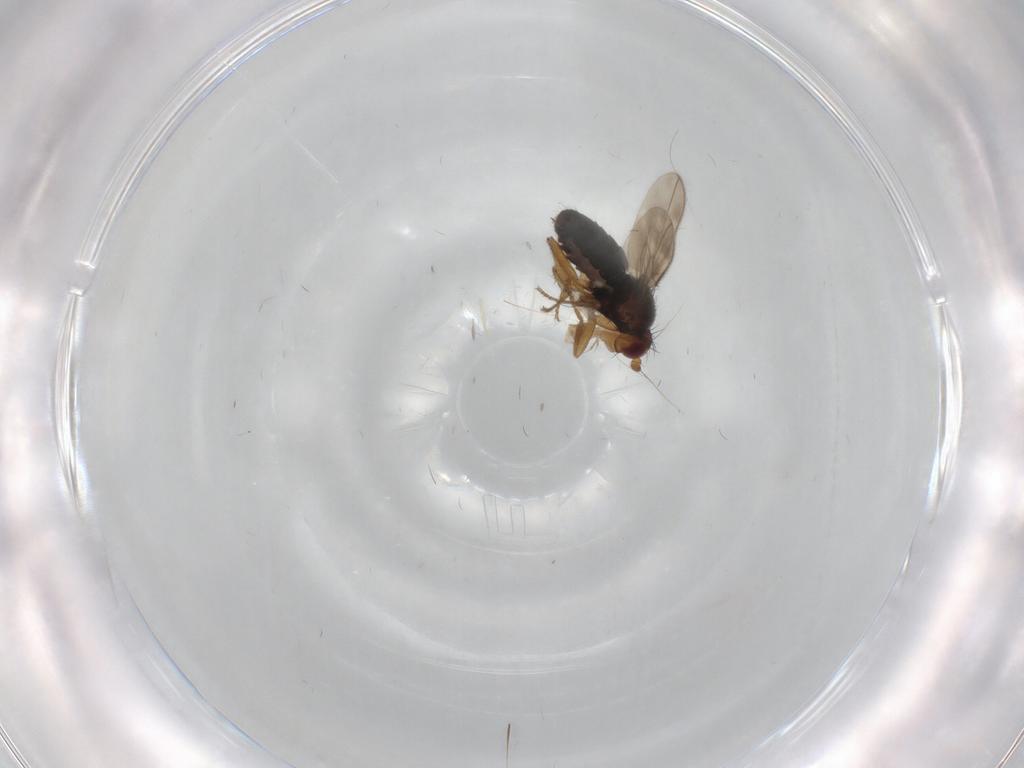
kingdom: Animalia
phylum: Arthropoda
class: Insecta
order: Diptera
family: Sphaeroceridae
